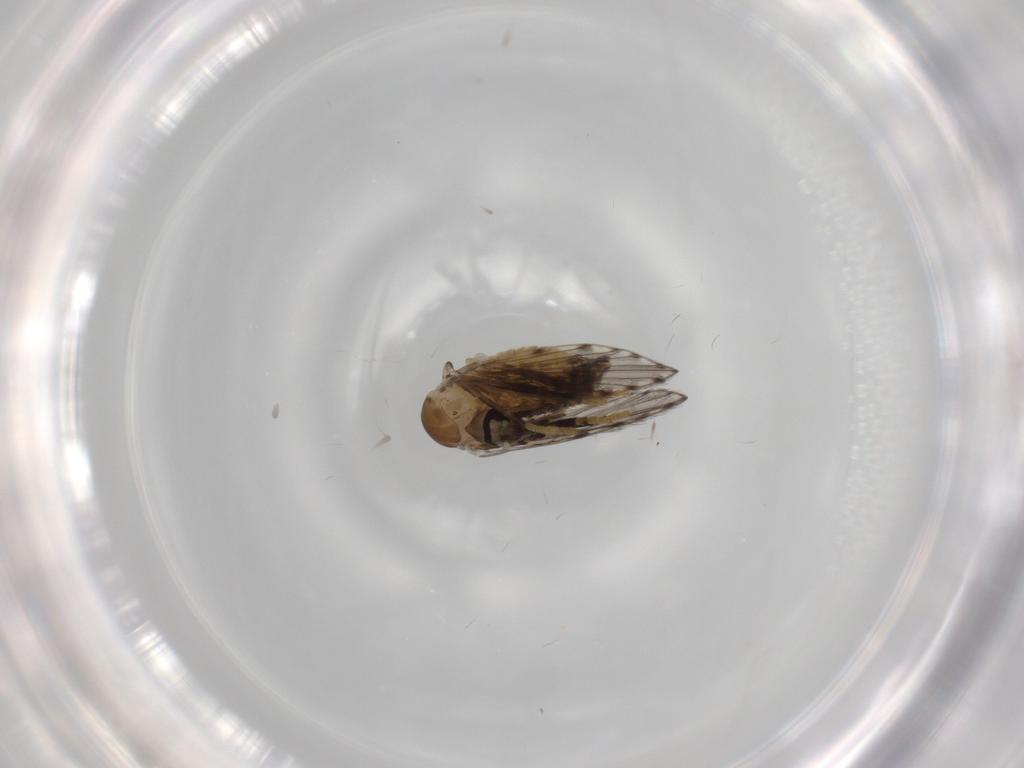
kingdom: Animalia
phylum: Arthropoda
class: Insecta
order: Diptera
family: Psychodidae
